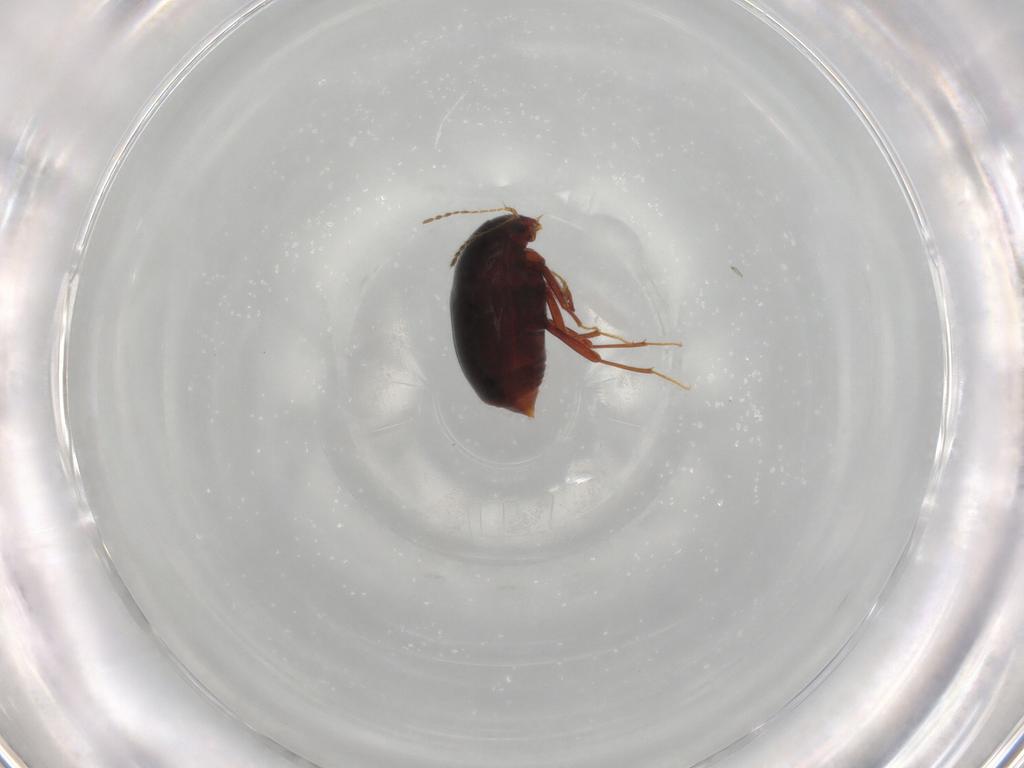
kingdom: Animalia
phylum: Arthropoda
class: Insecta
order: Coleoptera
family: Staphylinidae
